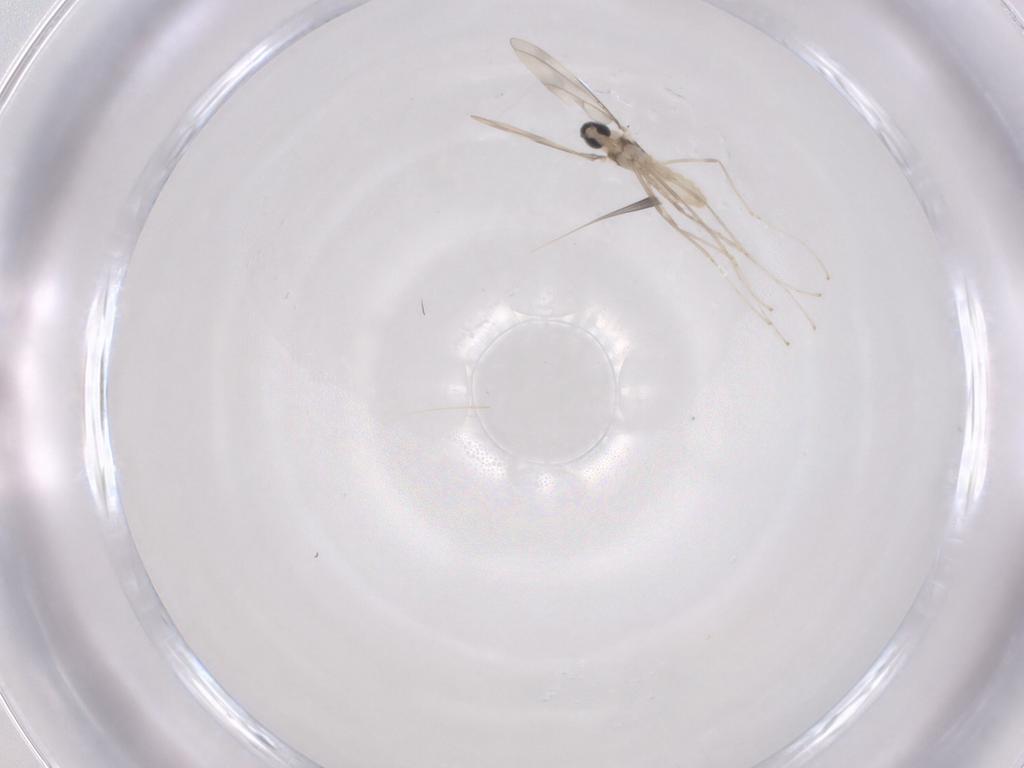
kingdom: Animalia
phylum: Arthropoda
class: Insecta
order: Diptera
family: Cecidomyiidae
